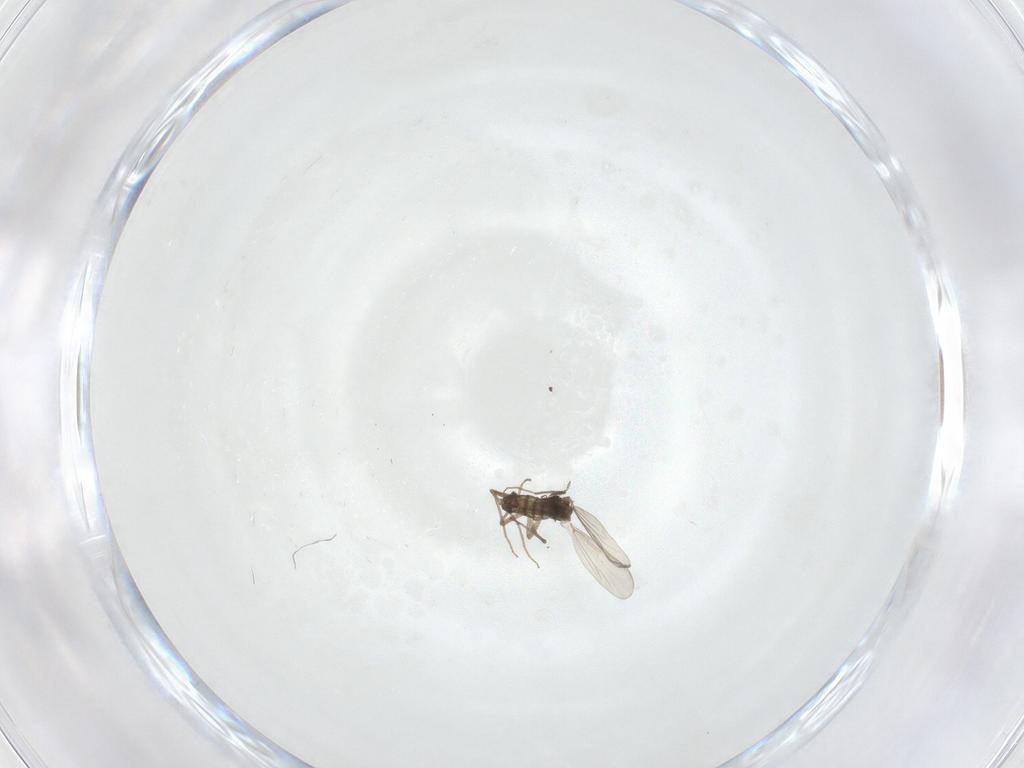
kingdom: Animalia
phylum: Arthropoda
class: Insecta
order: Diptera
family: Chironomidae
